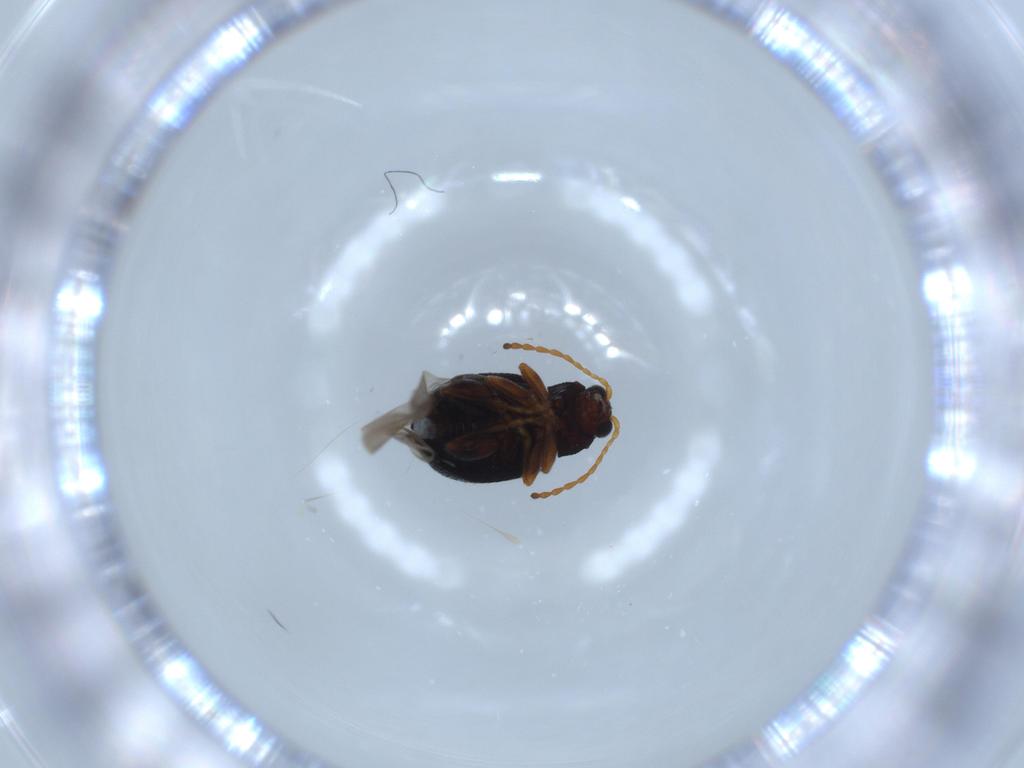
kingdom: Animalia
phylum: Arthropoda
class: Insecta
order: Coleoptera
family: Chrysomelidae
